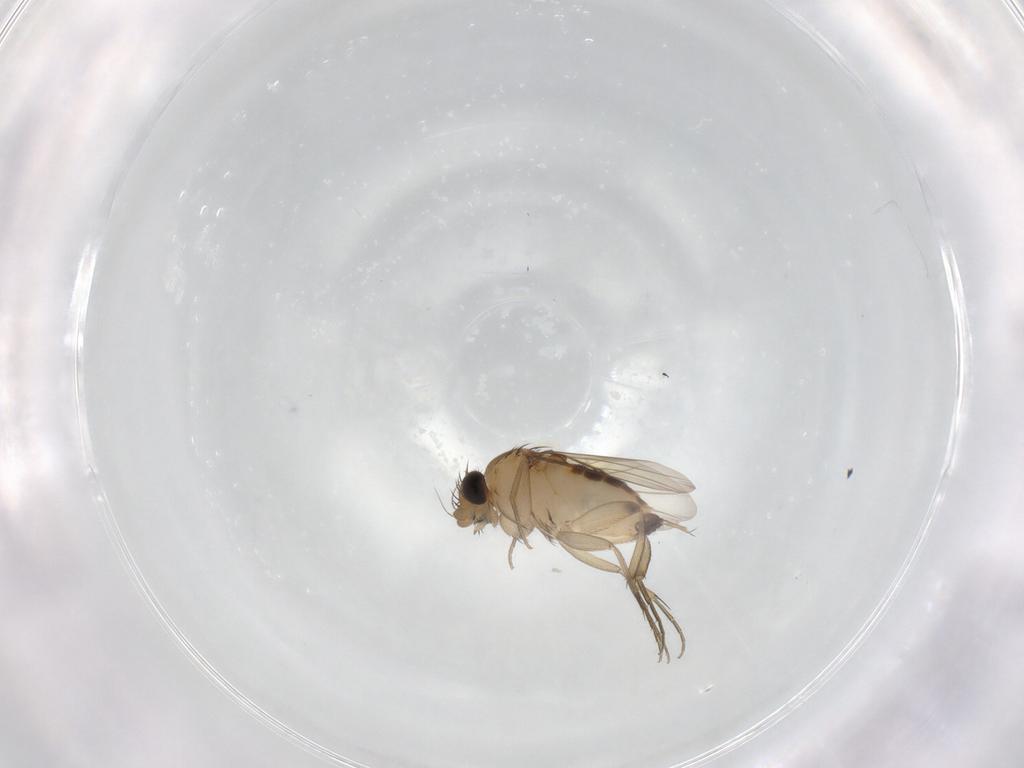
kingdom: Animalia
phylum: Arthropoda
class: Insecta
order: Diptera
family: Phoridae
